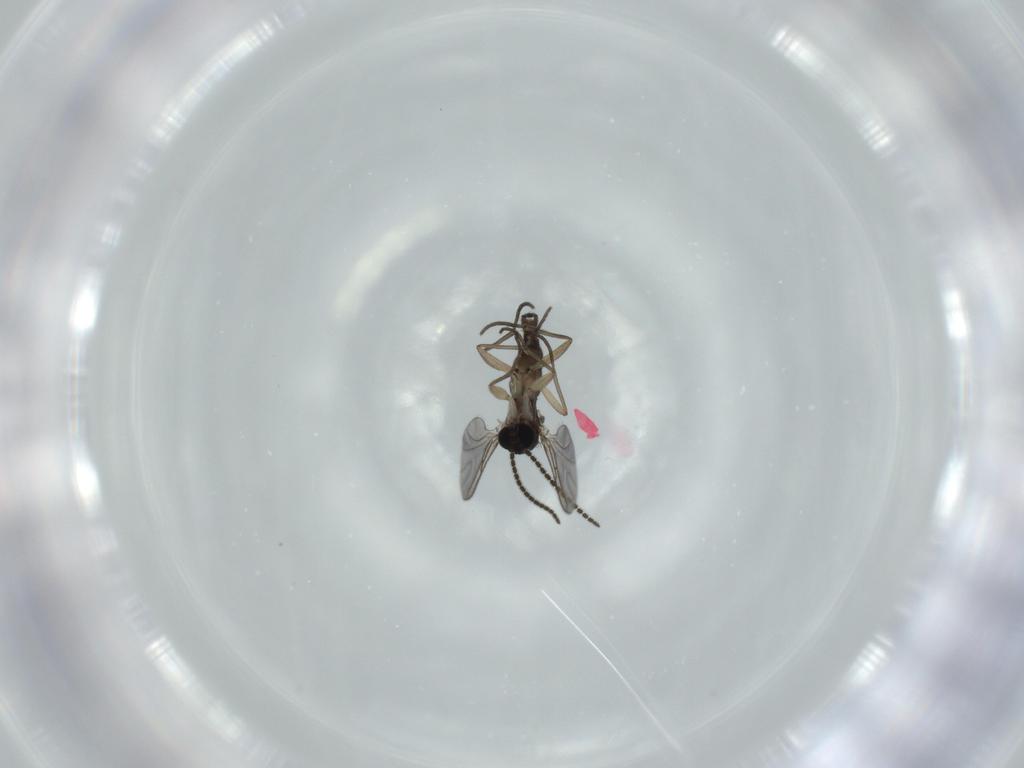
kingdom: Animalia
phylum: Arthropoda
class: Insecta
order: Diptera
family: Sciaridae
